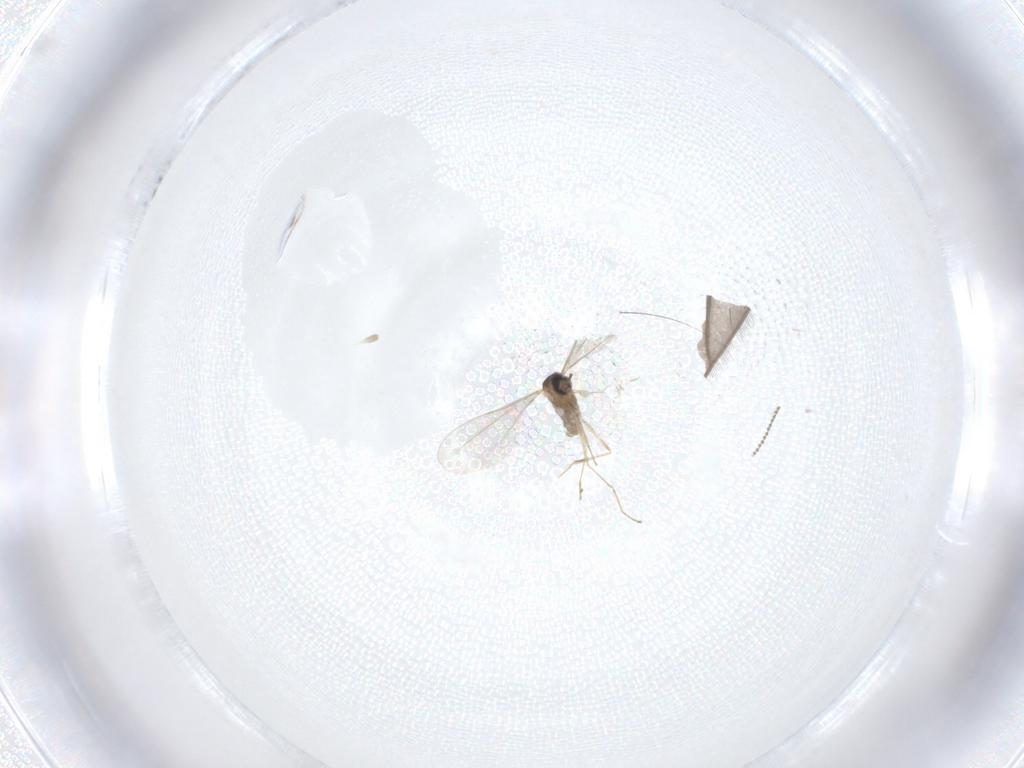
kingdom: Animalia
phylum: Arthropoda
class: Insecta
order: Diptera
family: Cecidomyiidae
